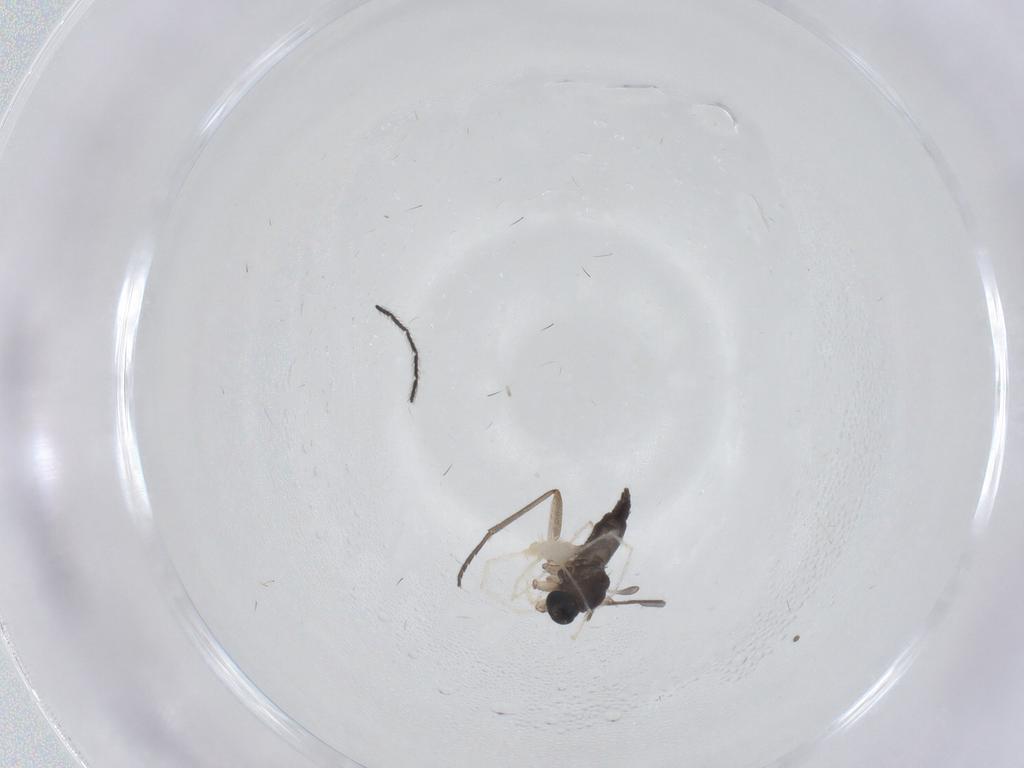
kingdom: Animalia
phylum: Arthropoda
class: Insecta
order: Diptera
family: Sciaridae
